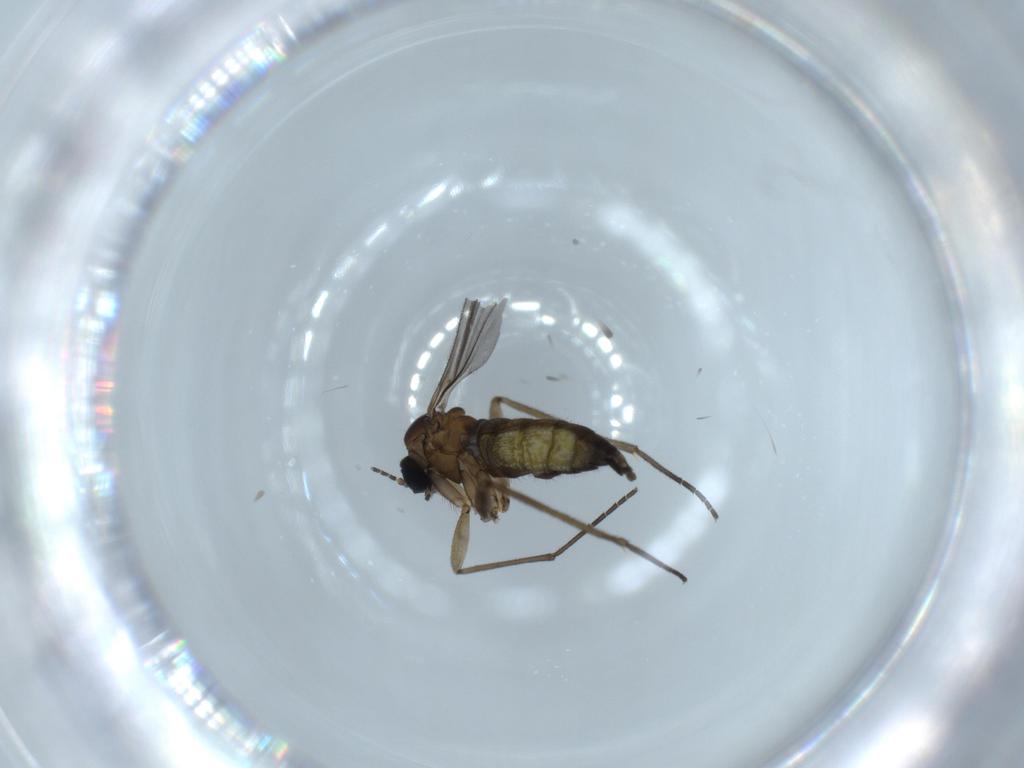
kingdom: Animalia
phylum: Arthropoda
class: Insecta
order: Diptera
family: Sciaridae
